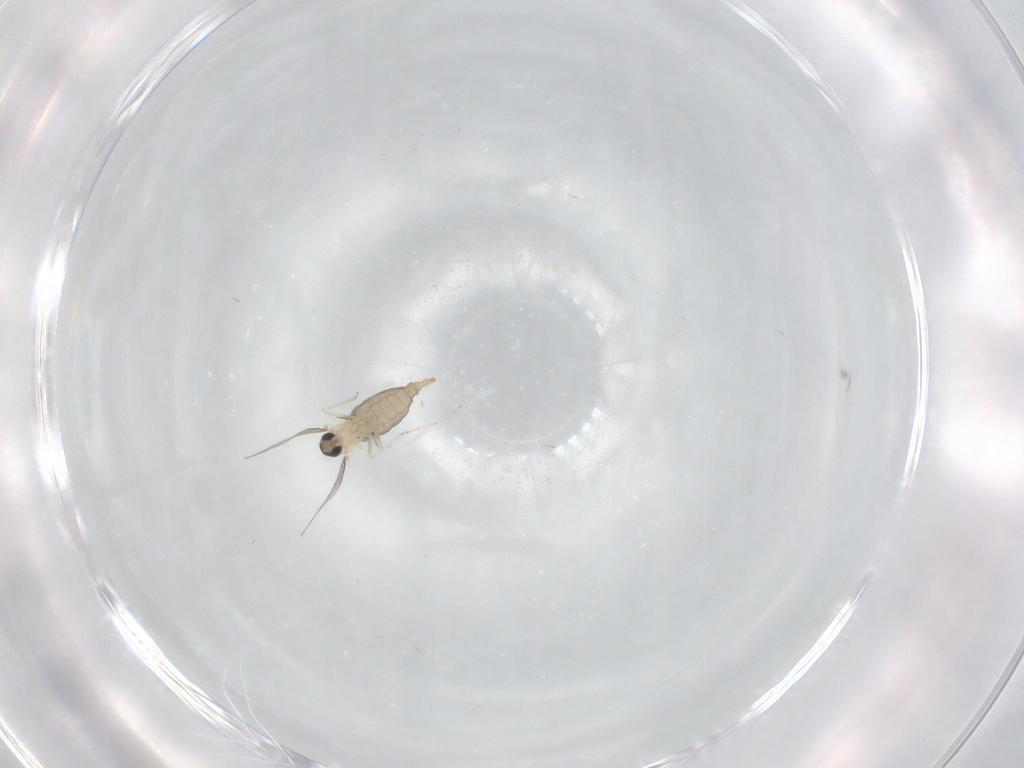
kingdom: Animalia
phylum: Arthropoda
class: Insecta
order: Diptera
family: Cecidomyiidae
